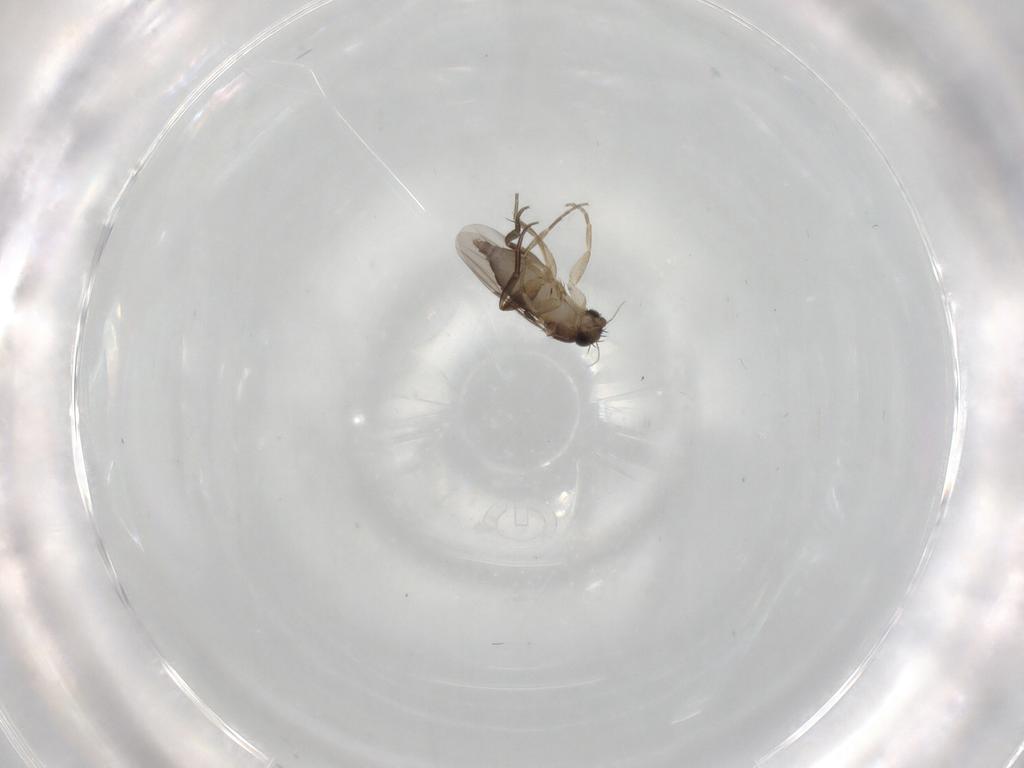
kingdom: Animalia
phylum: Arthropoda
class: Insecta
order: Diptera
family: Phoridae
